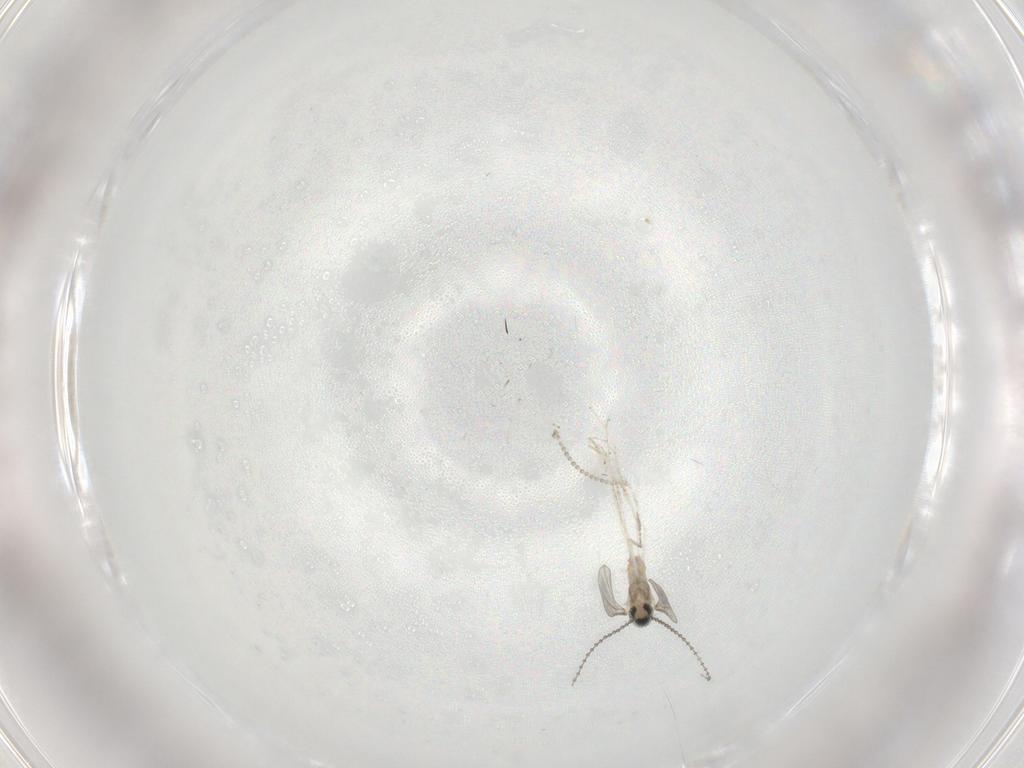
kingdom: Animalia
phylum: Arthropoda
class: Insecta
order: Diptera
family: Cecidomyiidae
